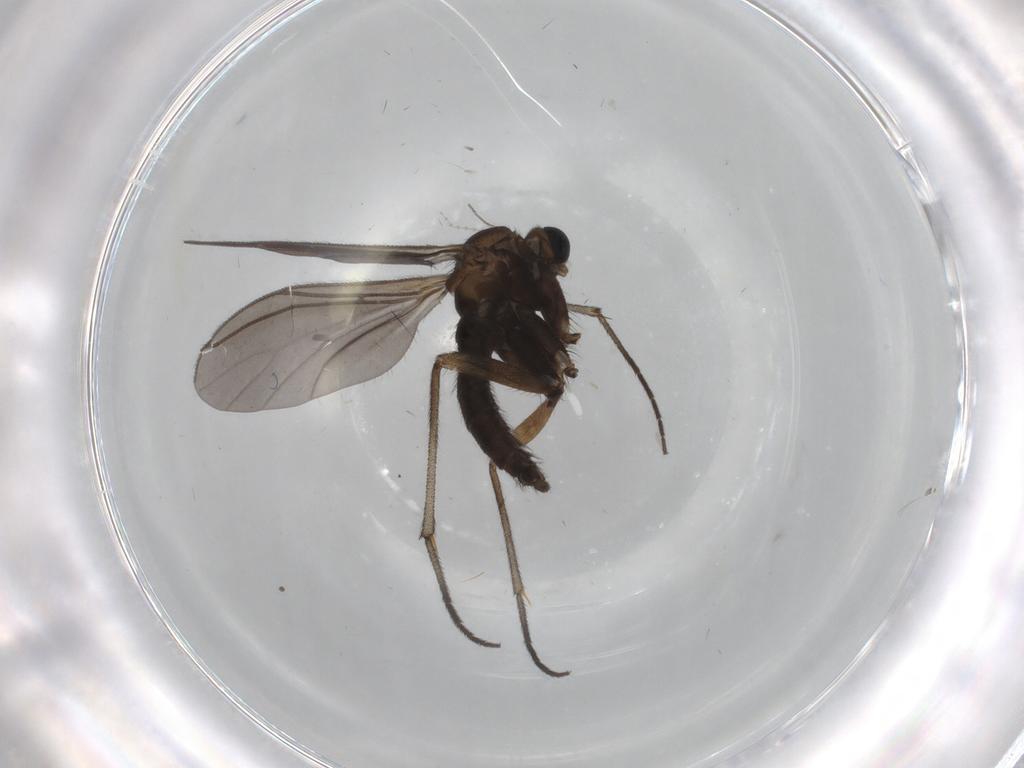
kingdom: Animalia
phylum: Arthropoda
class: Insecta
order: Diptera
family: Cecidomyiidae
